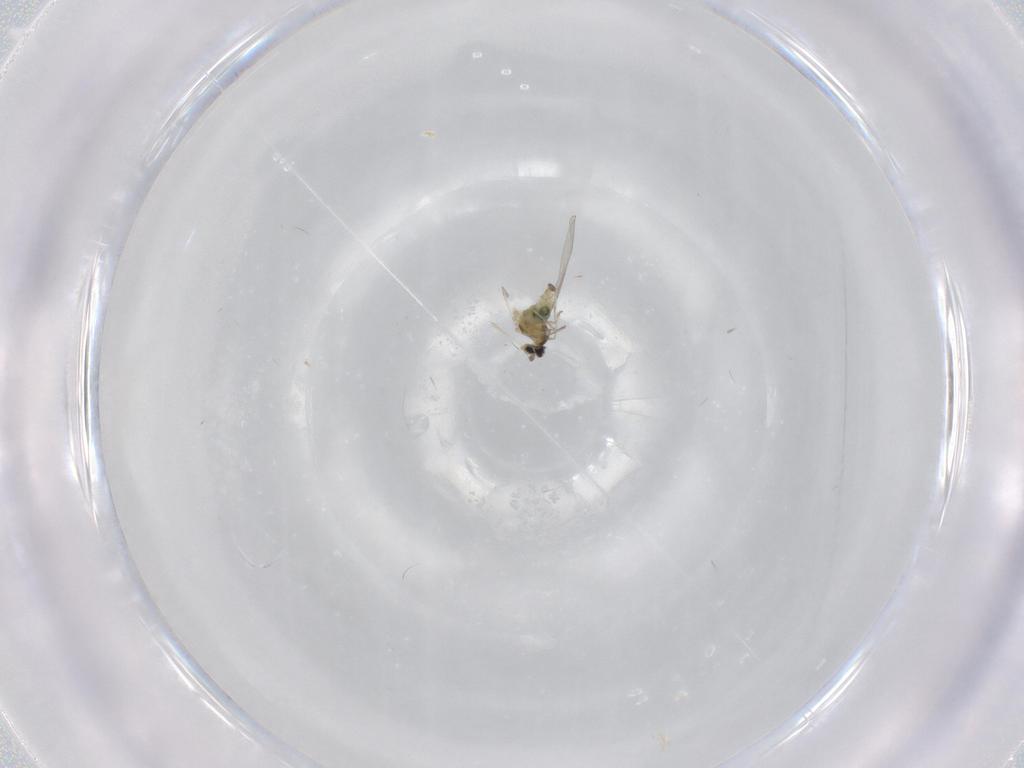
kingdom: Animalia
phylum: Arthropoda
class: Insecta
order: Diptera
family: Cecidomyiidae
